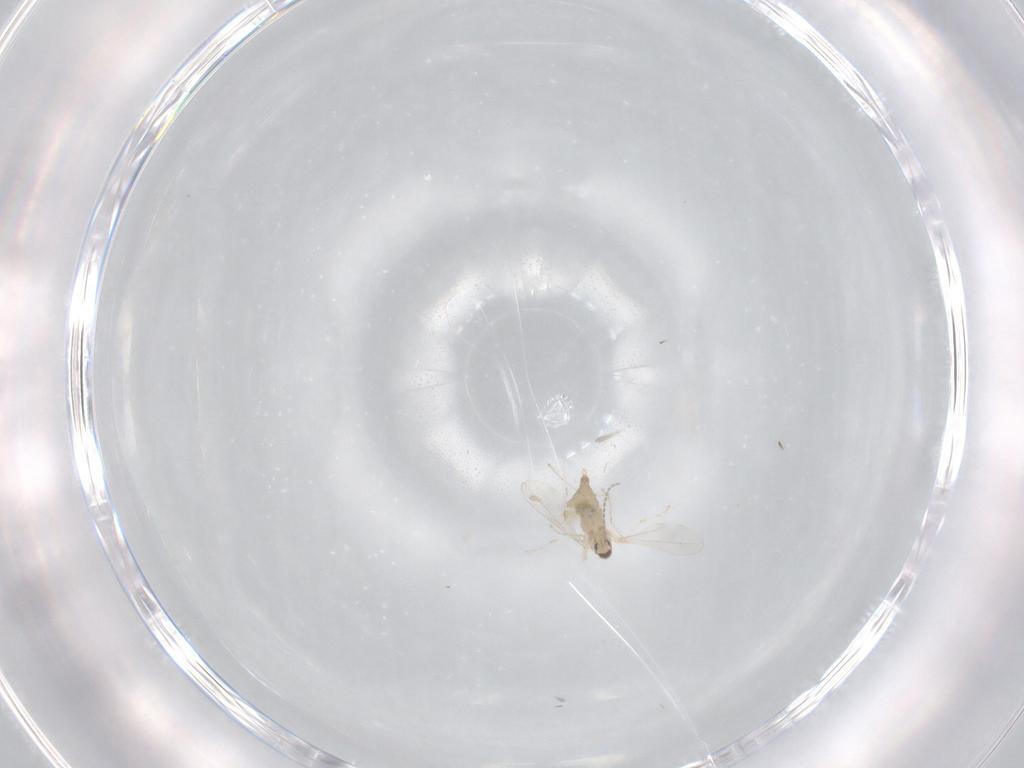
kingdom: Animalia
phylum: Arthropoda
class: Insecta
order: Diptera
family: Cecidomyiidae
